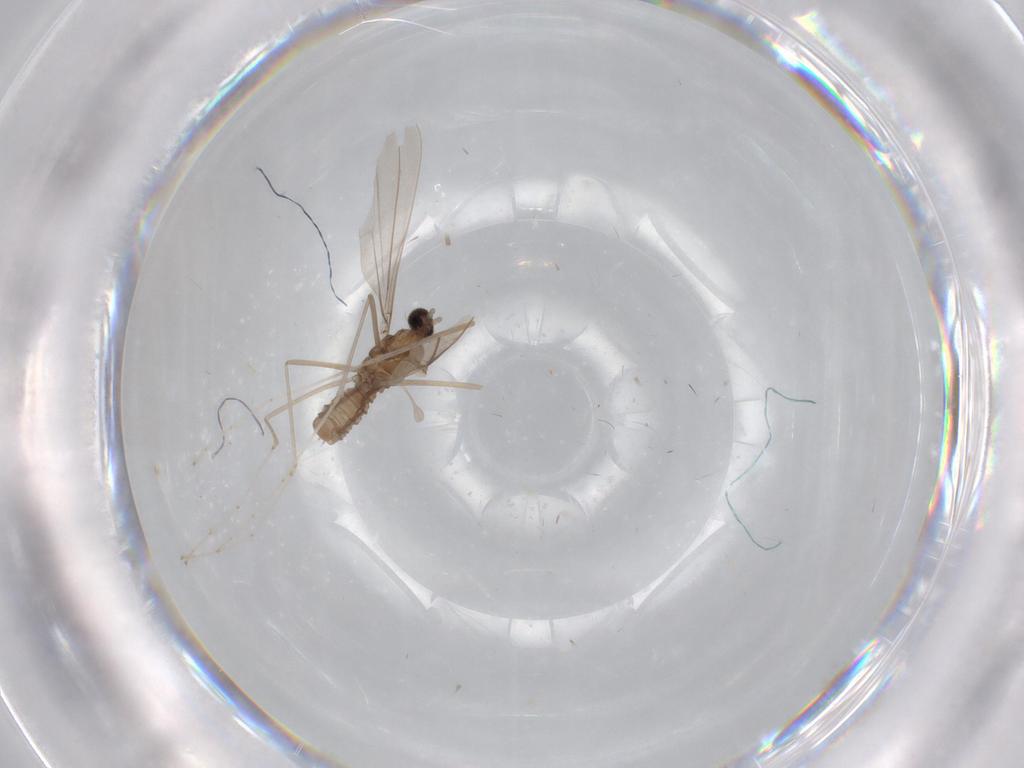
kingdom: Animalia
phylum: Arthropoda
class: Insecta
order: Diptera
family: Cecidomyiidae
